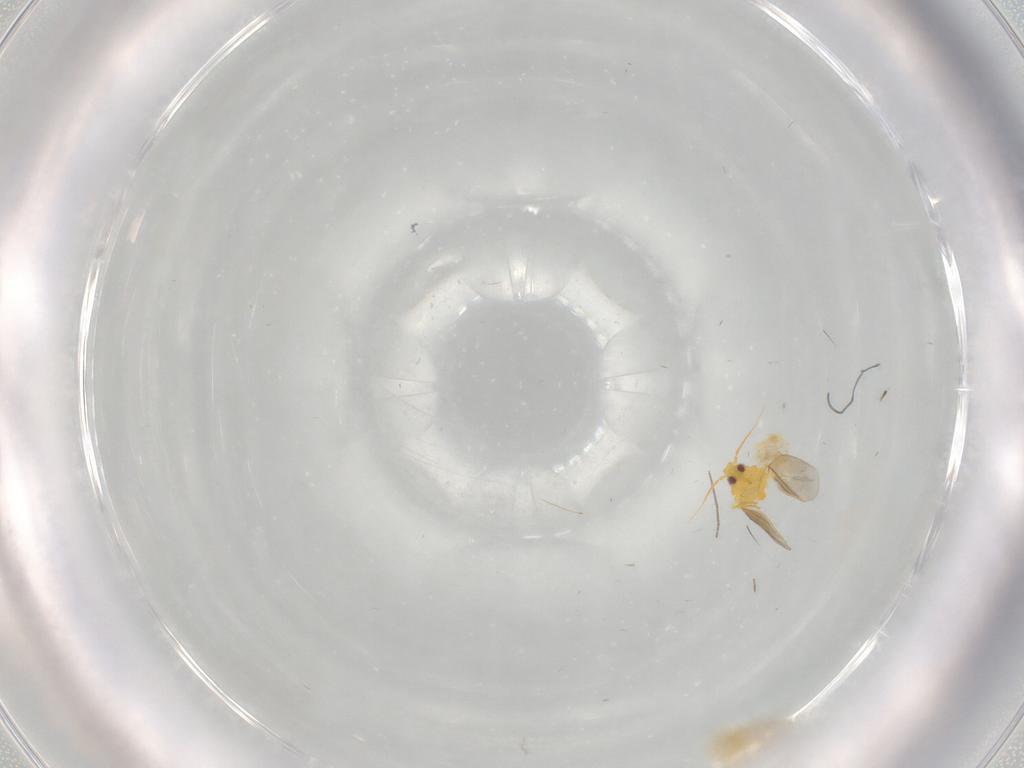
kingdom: Animalia
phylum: Arthropoda
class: Insecta
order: Hemiptera
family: Aleyrodidae
